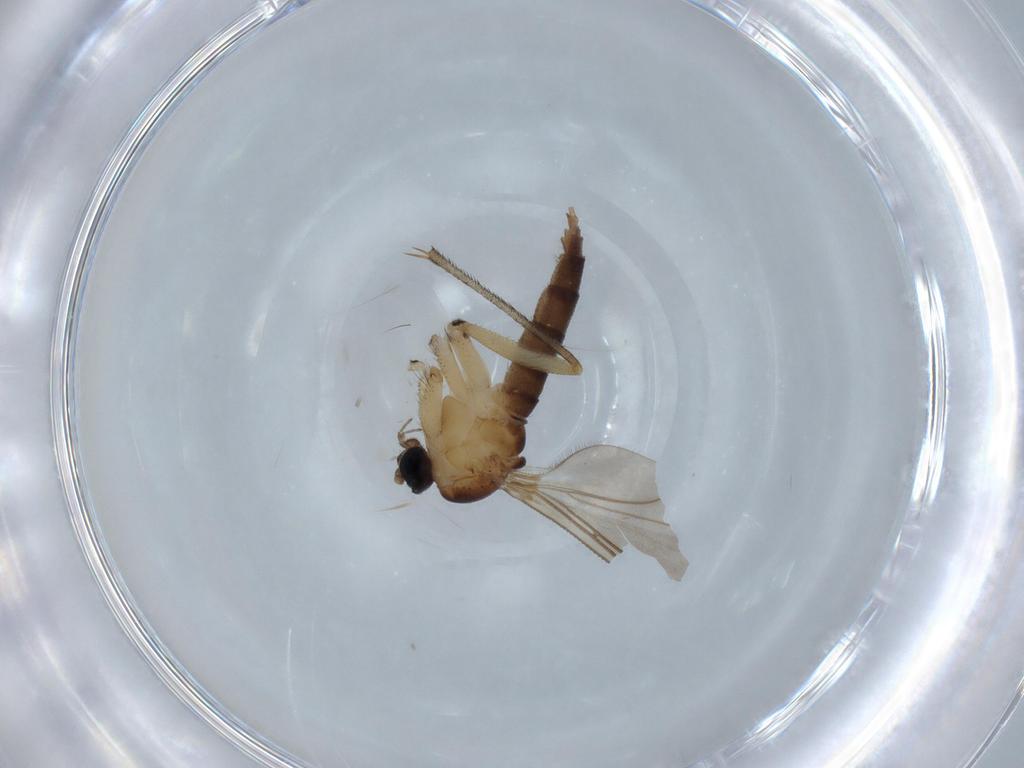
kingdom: Animalia
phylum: Arthropoda
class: Insecta
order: Diptera
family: Sciaridae
